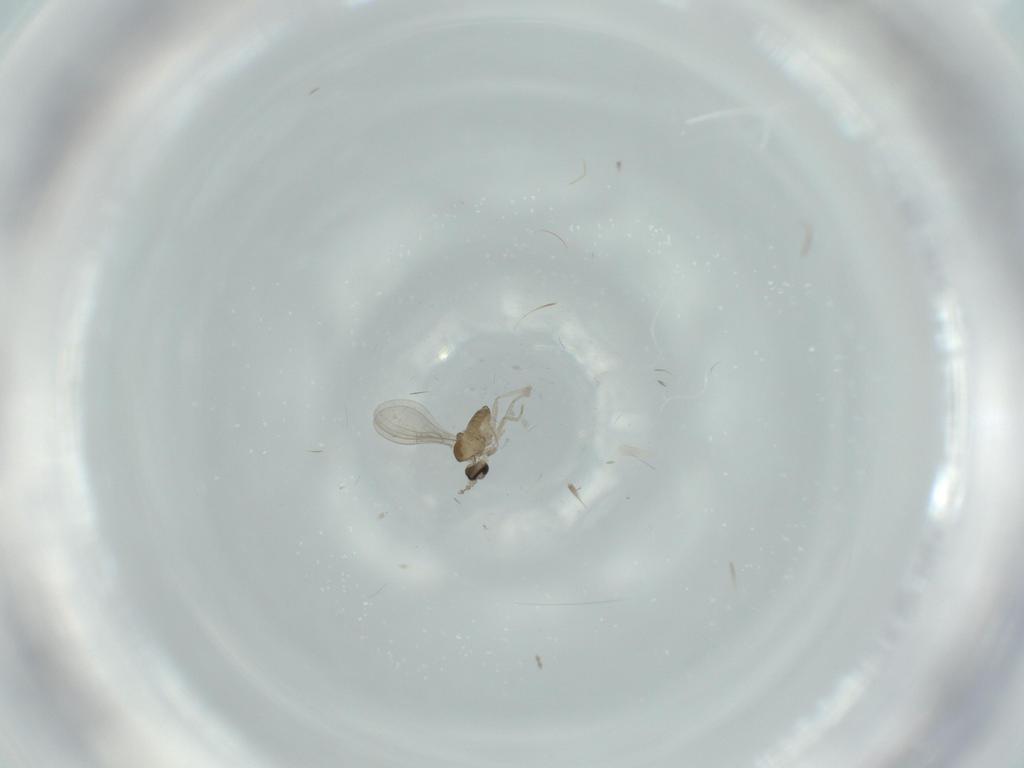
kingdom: Animalia
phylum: Arthropoda
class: Insecta
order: Diptera
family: Cecidomyiidae
